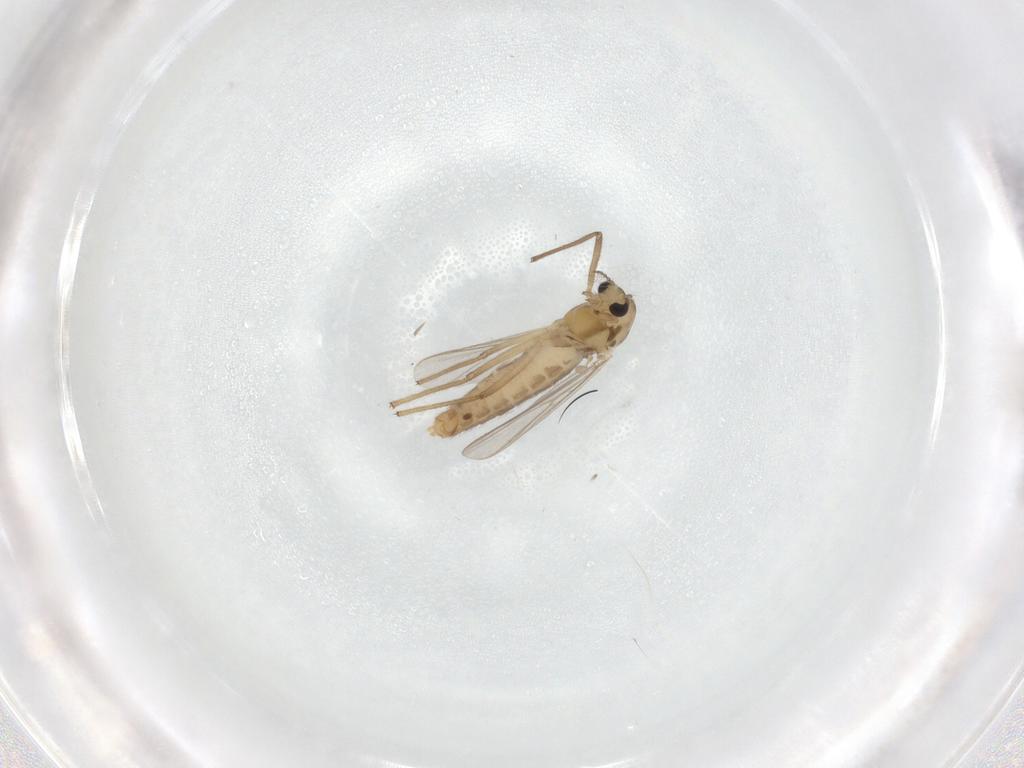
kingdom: Animalia
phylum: Arthropoda
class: Insecta
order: Diptera
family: Chironomidae
